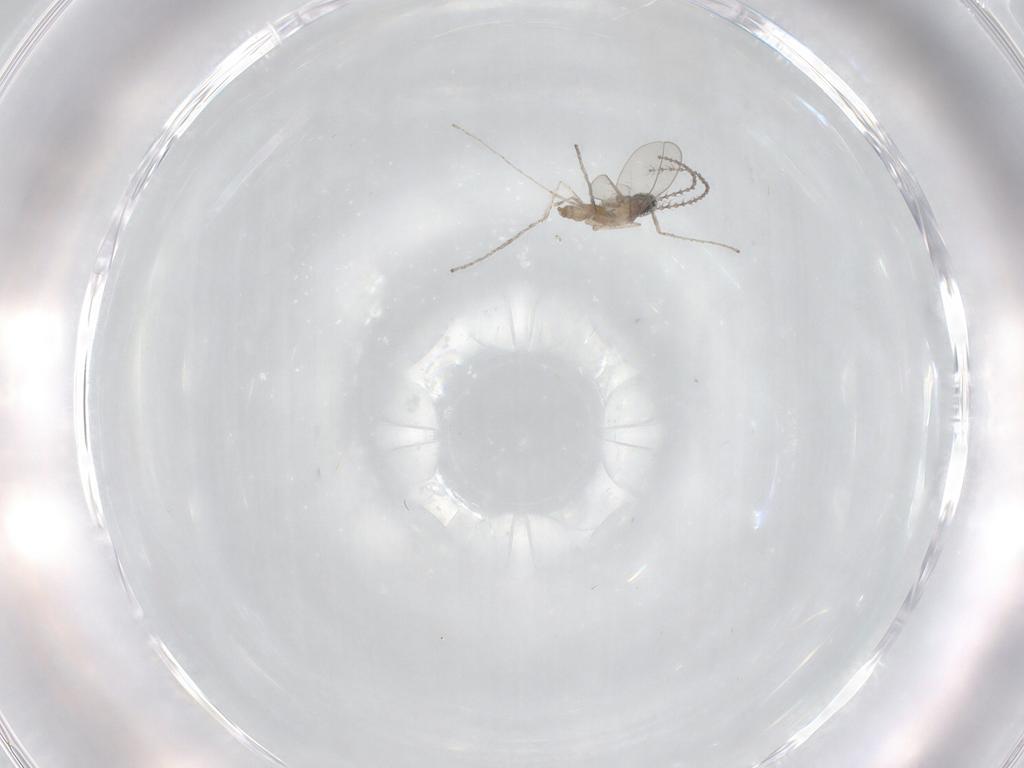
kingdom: Animalia
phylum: Arthropoda
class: Insecta
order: Diptera
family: Cecidomyiidae
